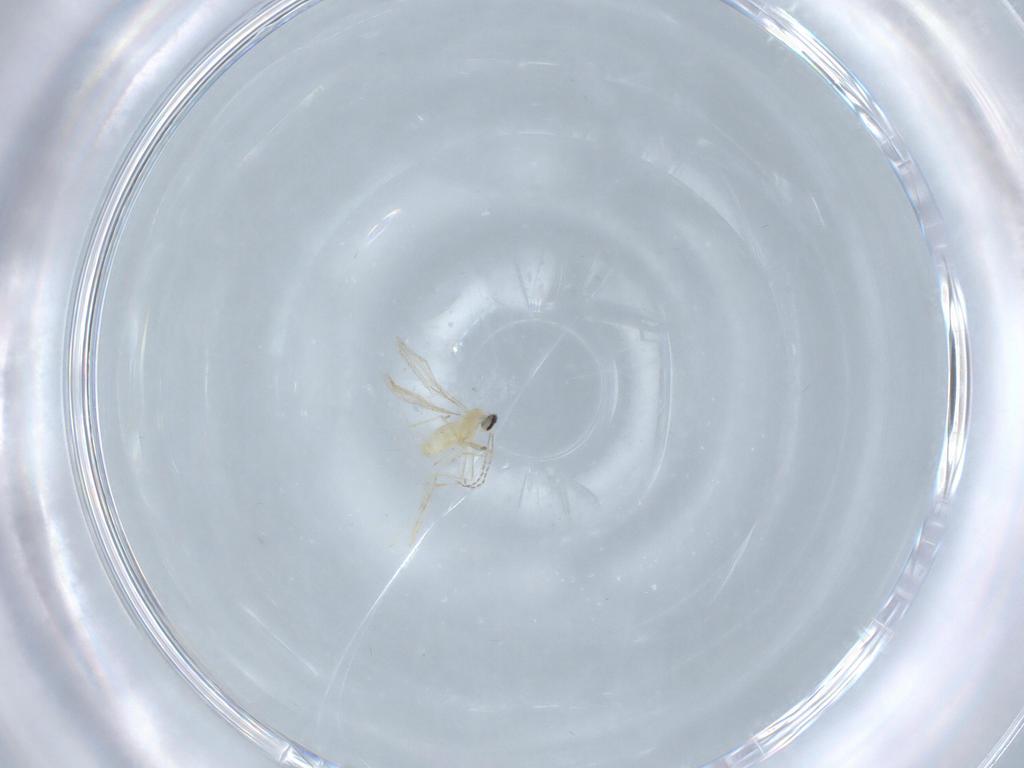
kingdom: Animalia
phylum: Arthropoda
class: Insecta
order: Diptera
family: Cecidomyiidae
